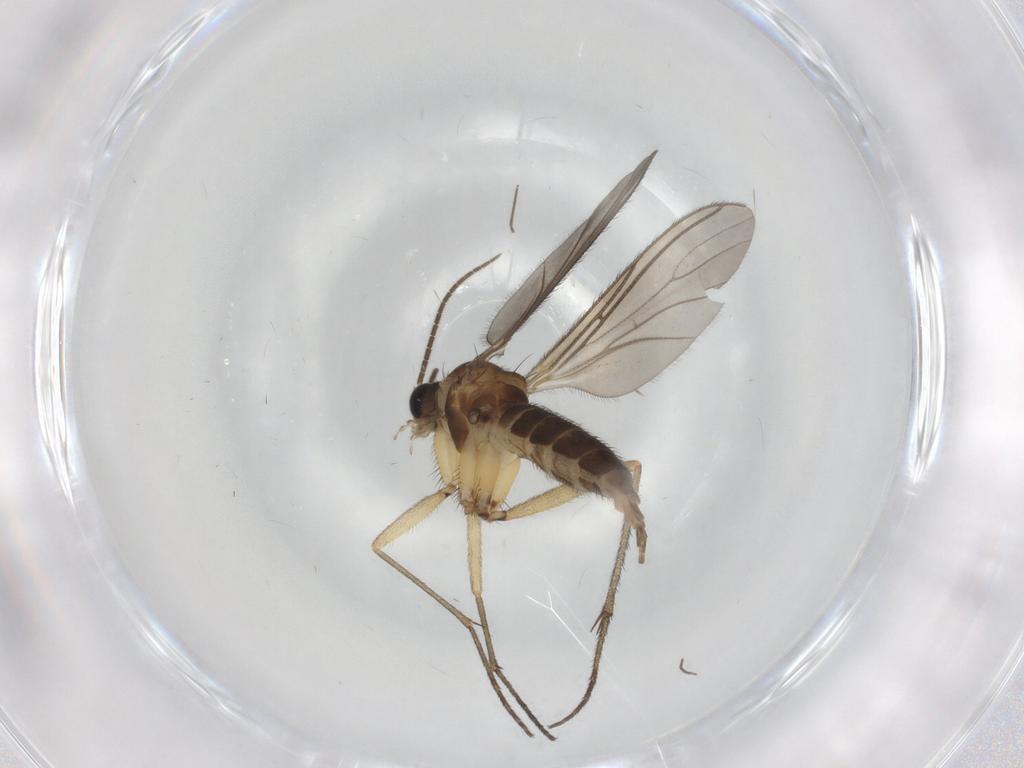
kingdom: Animalia
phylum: Arthropoda
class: Insecta
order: Diptera
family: Sciaridae
